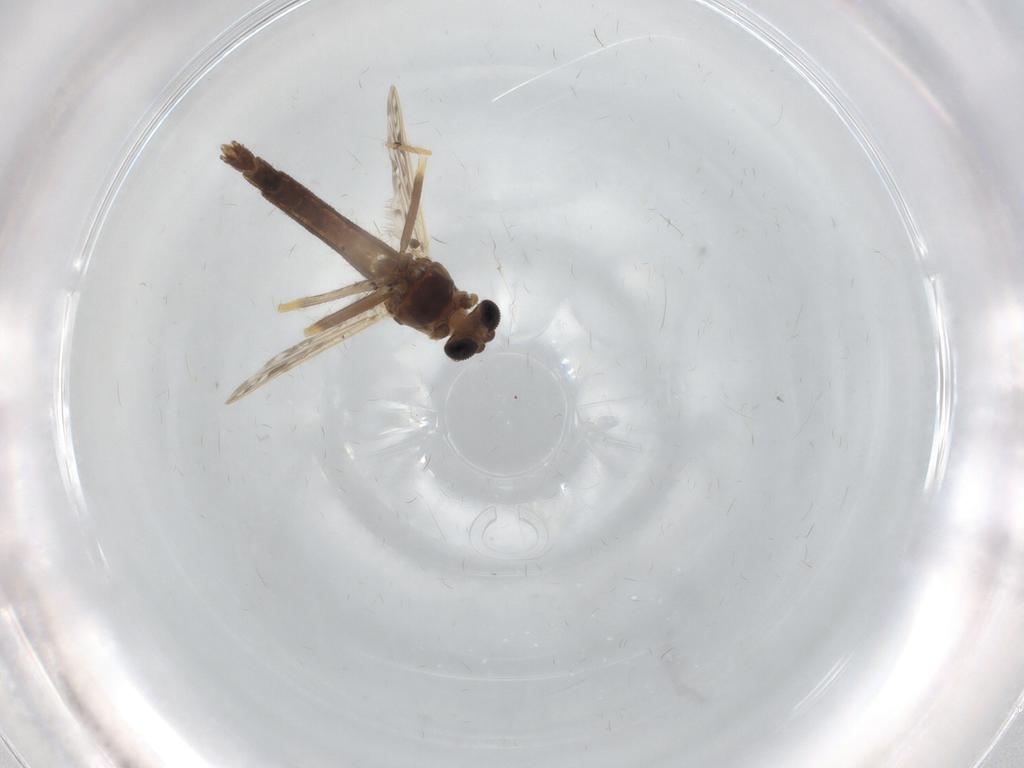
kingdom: Animalia
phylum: Arthropoda
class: Insecta
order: Diptera
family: Chironomidae
